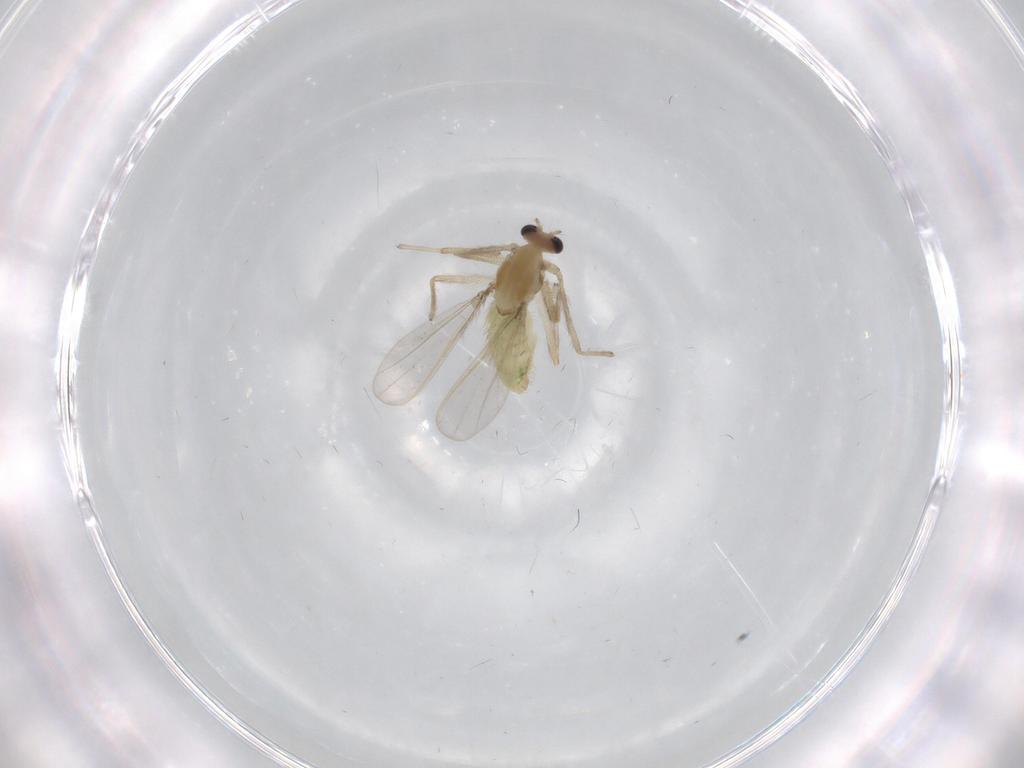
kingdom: Animalia
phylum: Arthropoda
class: Insecta
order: Diptera
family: Chironomidae
